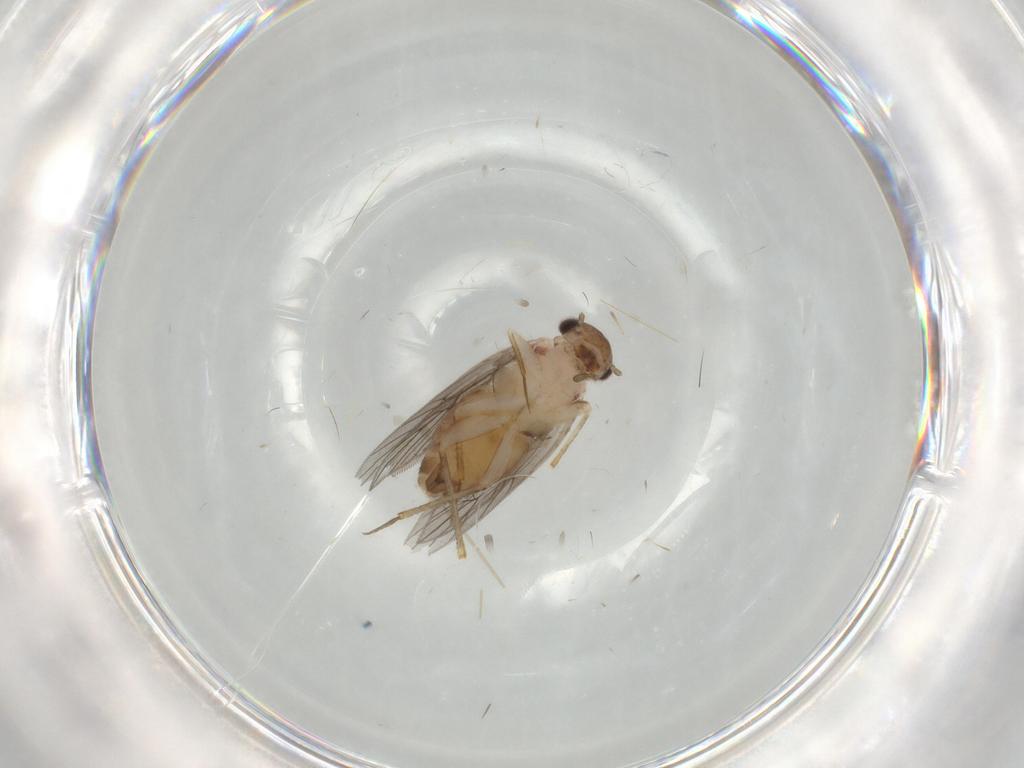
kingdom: Animalia
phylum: Arthropoda
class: Insecta
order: Psocodea
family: Lepidopsocidae
